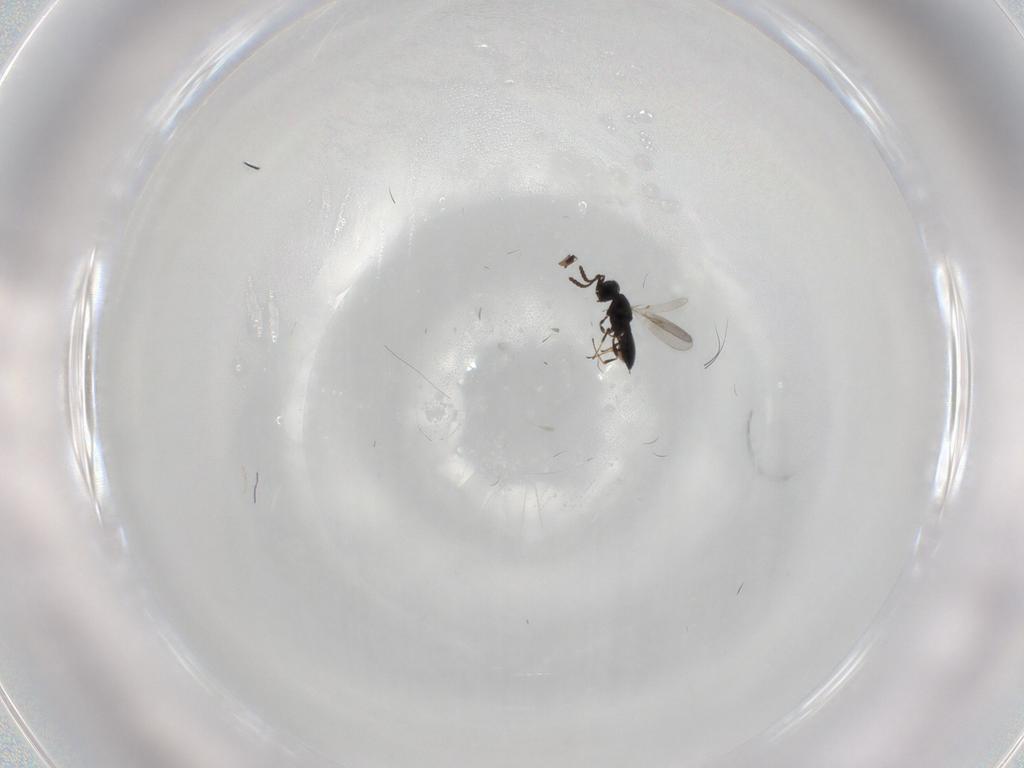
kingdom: Animalia
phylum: Arthropoda
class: Insecta
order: Hymenoptera
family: Scelionidae
